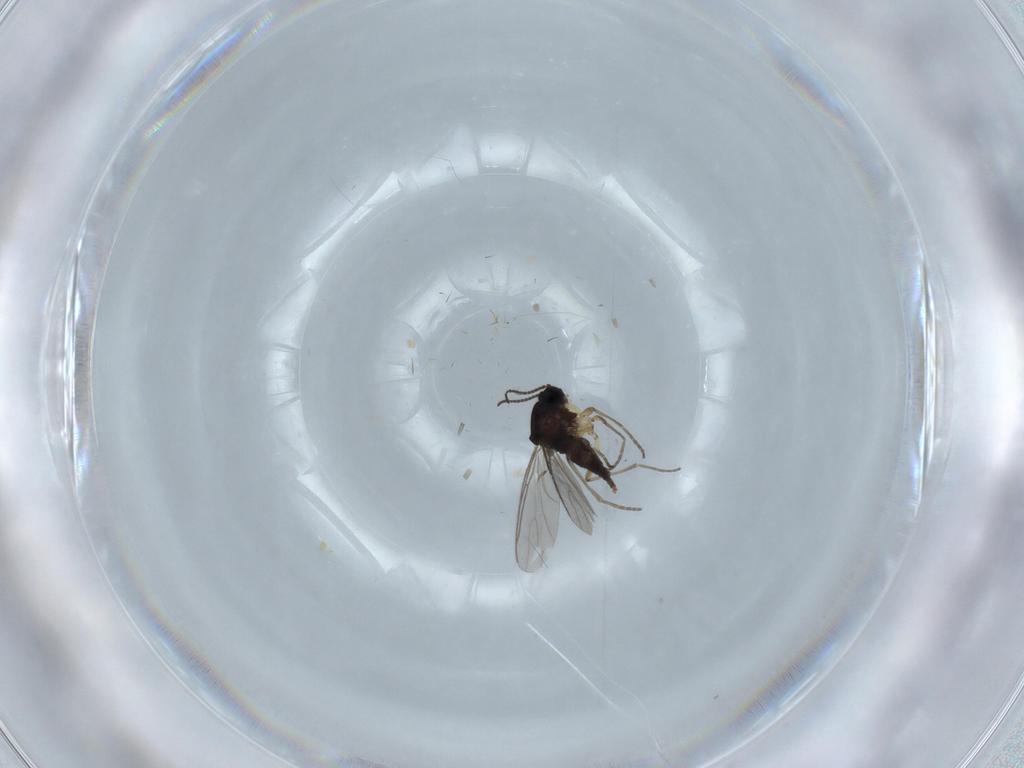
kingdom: Animalia
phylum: Arthropoda
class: Insecta
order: Diptera
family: Sciaridae
